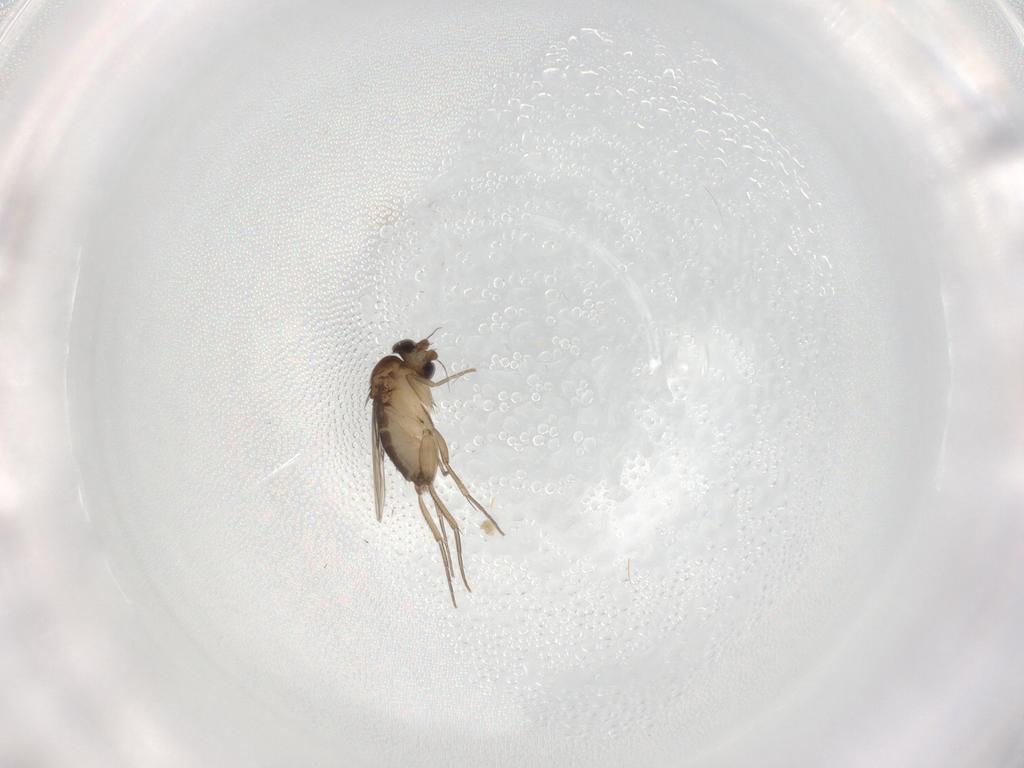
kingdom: Animalia
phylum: Arthropoda
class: Insecta
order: Diptera
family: Phoridae
